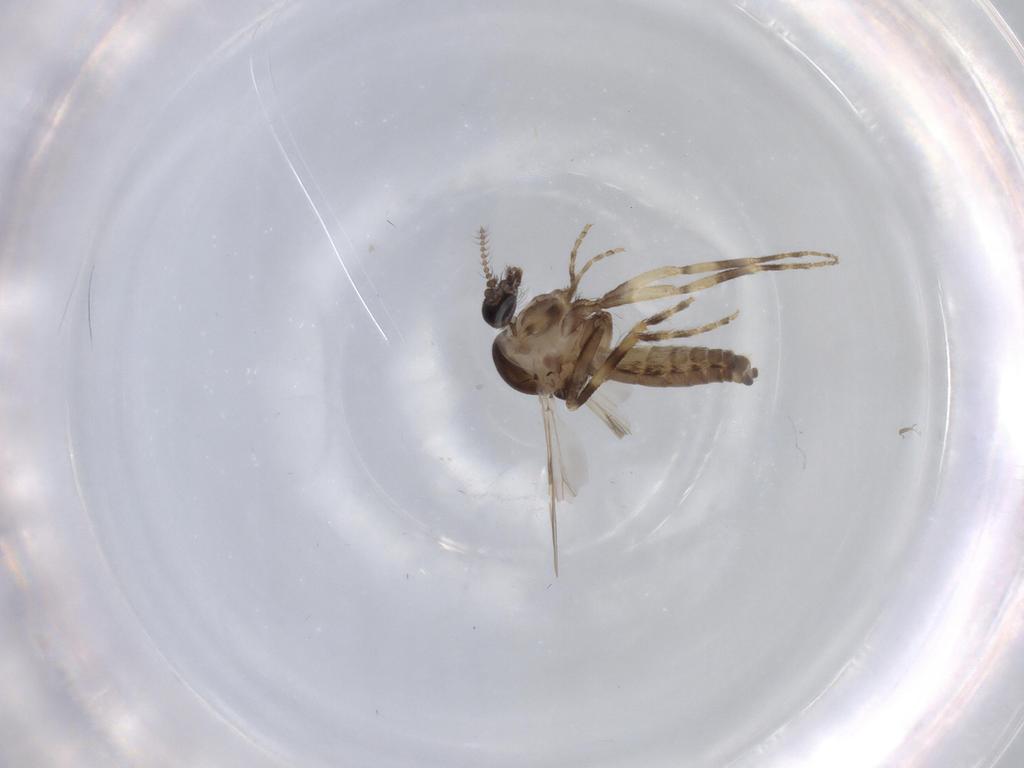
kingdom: Animalia
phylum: Arthropoda
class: Insecta
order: Diptera
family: Ceratopogonidae
